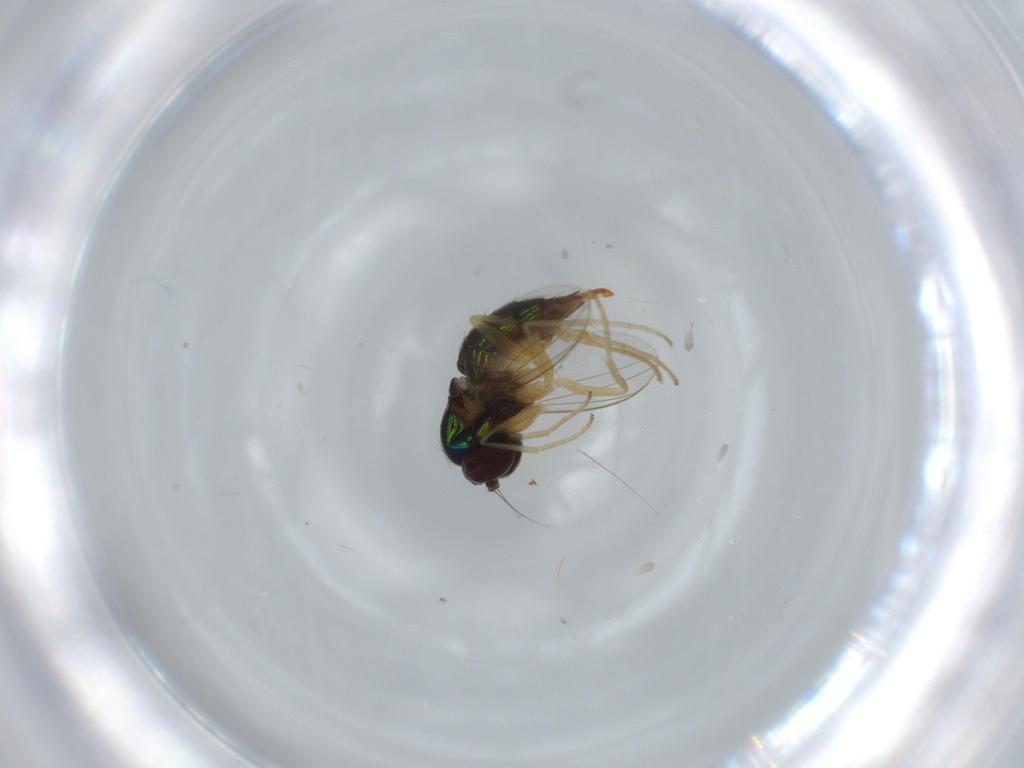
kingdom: Animalia
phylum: Arthropoda
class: Insecta
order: Diptera
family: Dolichopodidae
